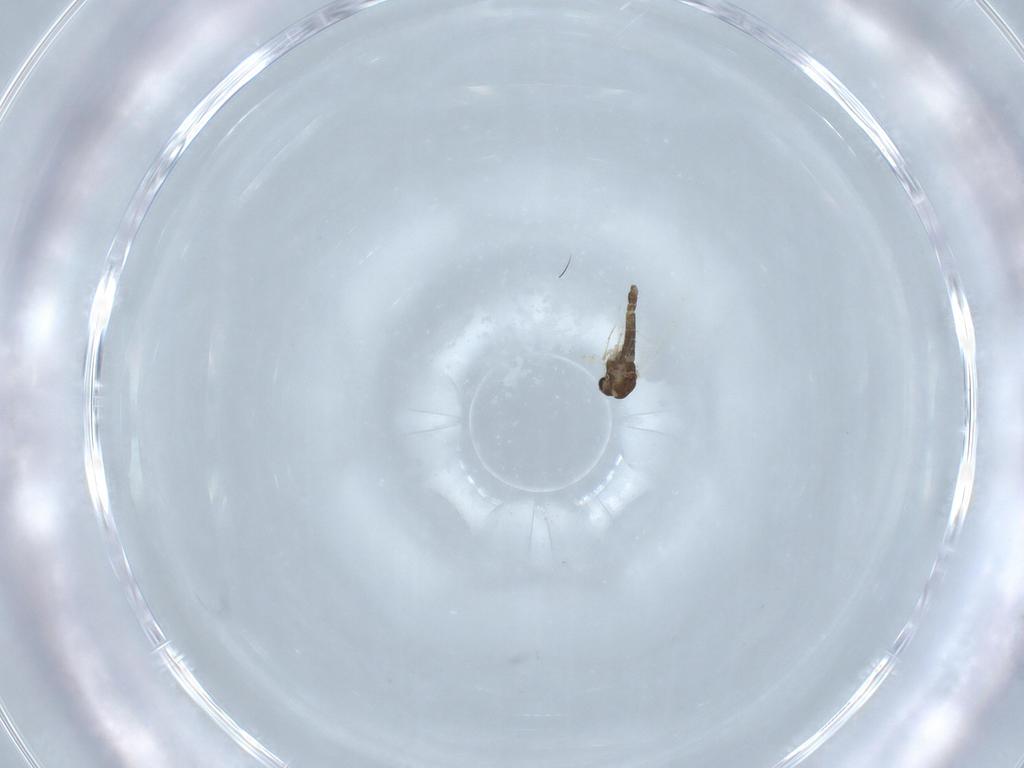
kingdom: Animalia
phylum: Arthropoda
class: Insecta
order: Diptera
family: Chironomidae
